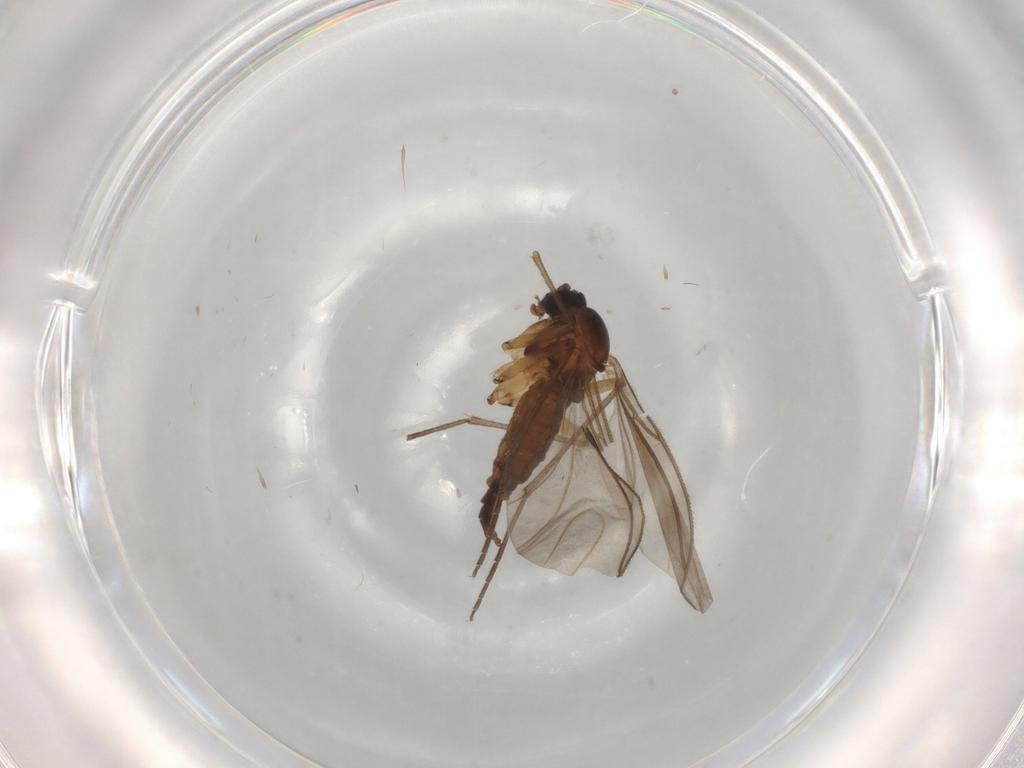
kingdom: Animalia
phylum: Arthropoda
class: Insecta
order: Diptera
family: Sciaridae
